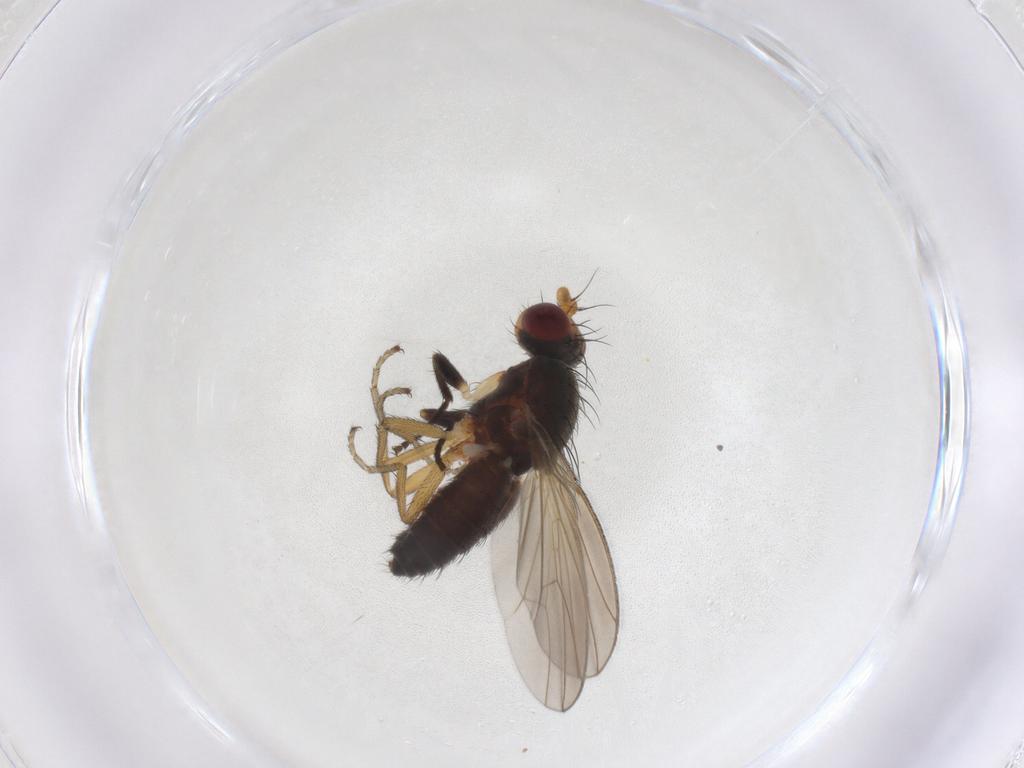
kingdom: Animalia
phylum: Arthropoda
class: Insecta
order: Diptera
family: Heleomyzidae
